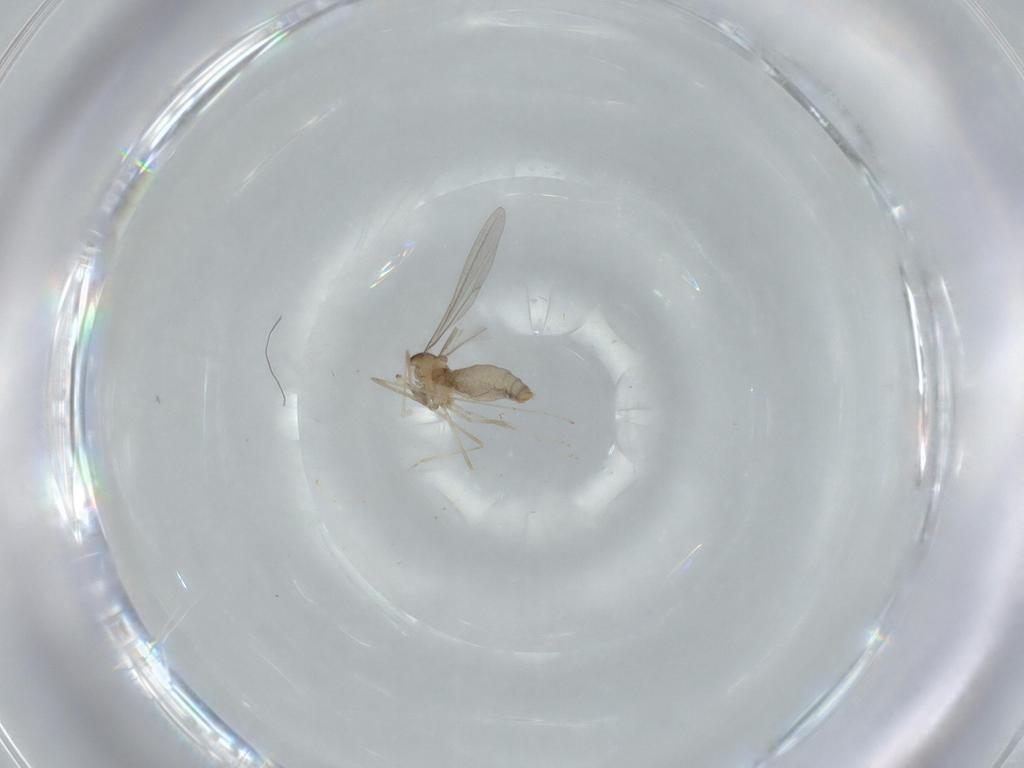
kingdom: Animalia
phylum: Arthropoda
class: Insecta
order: Diptera
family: Cecidomyiidae
